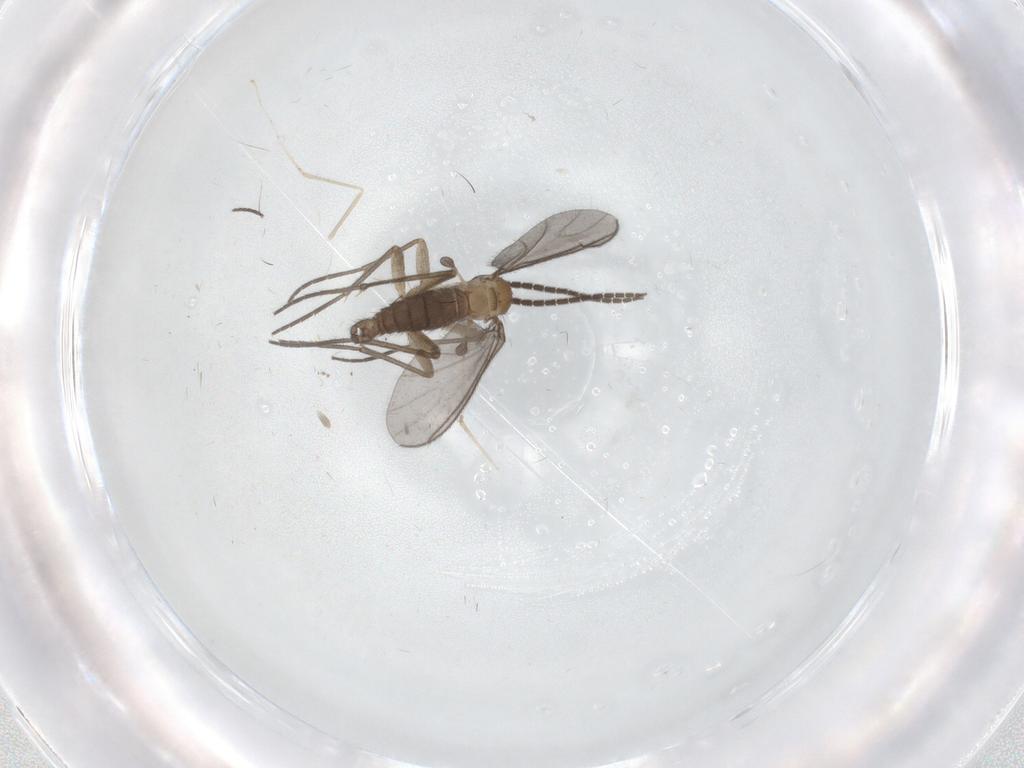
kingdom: Animalia
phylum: Arthropoda
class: Insecta
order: Diptera
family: Sciaridae
